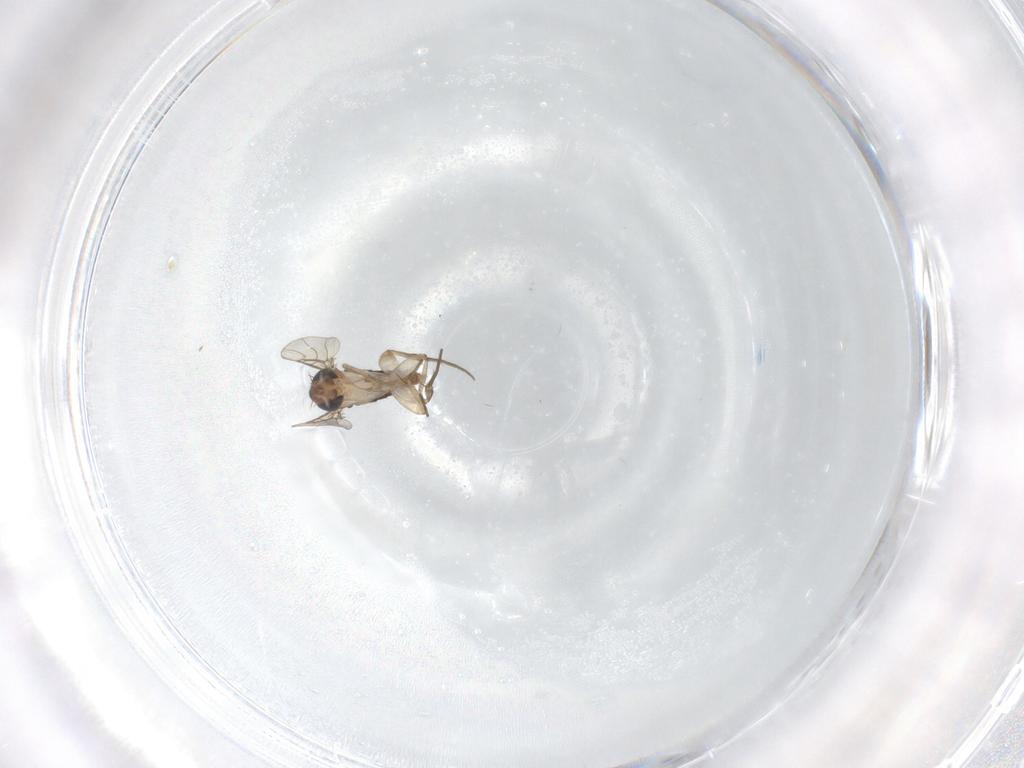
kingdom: Animalia
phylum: Arthropoda
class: Insecta
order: Diptera
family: Phoridae
